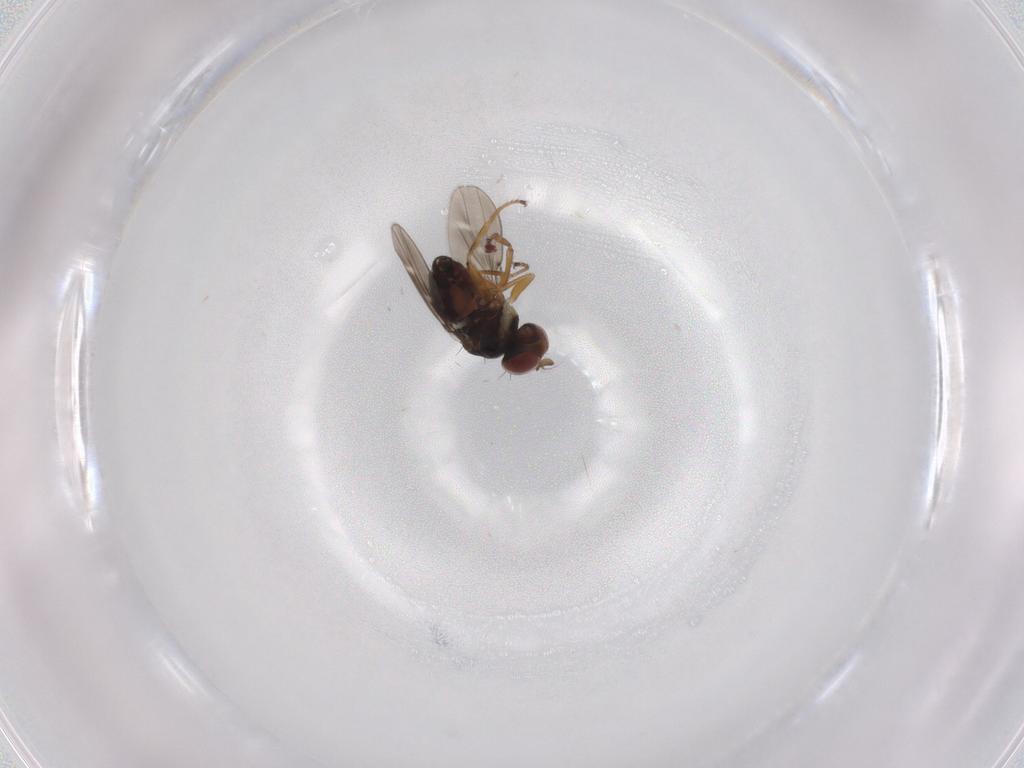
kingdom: Animalia
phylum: Arthropoda
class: Insecta
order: Diptera
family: Ephydridae
